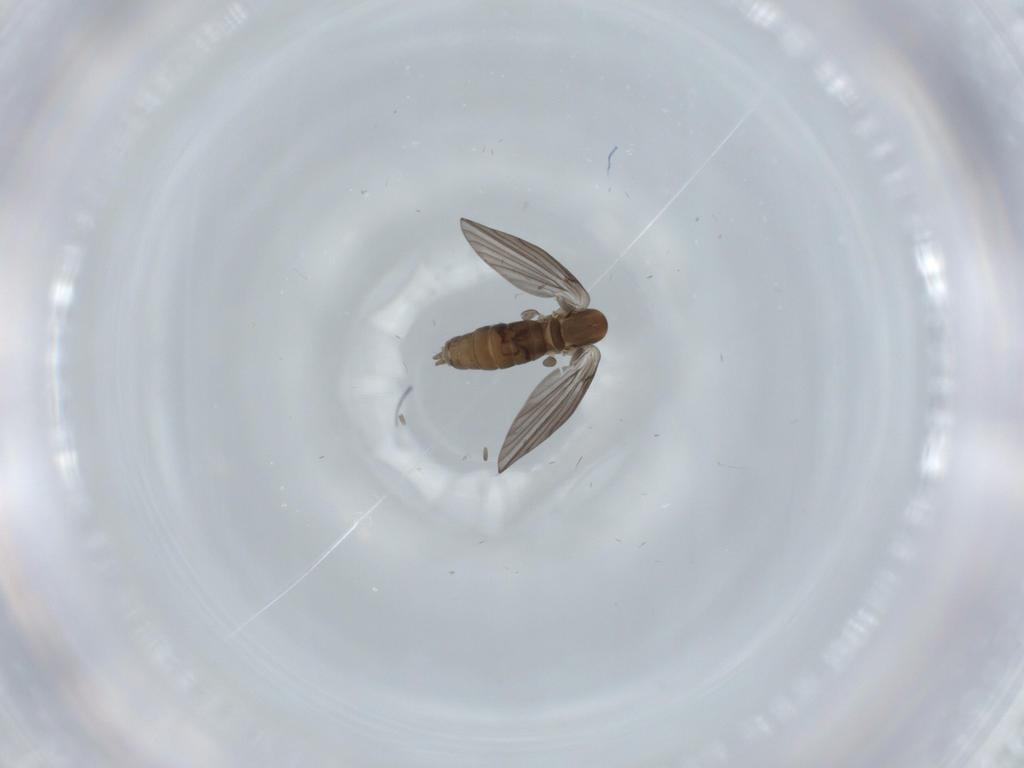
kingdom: Animalia
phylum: Arthropoda
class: Insecta
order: Diptera
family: Psychodidae
